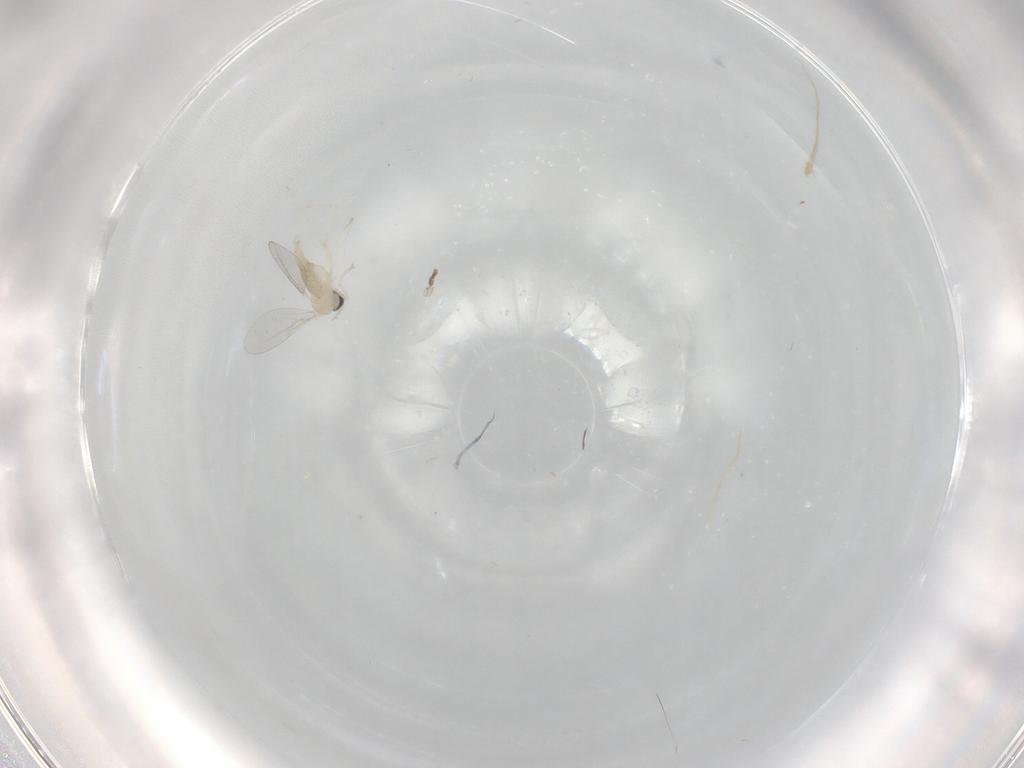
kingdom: Animalia
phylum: Arthropoda
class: Insecta
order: Diptera
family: Cecidomyiidae
